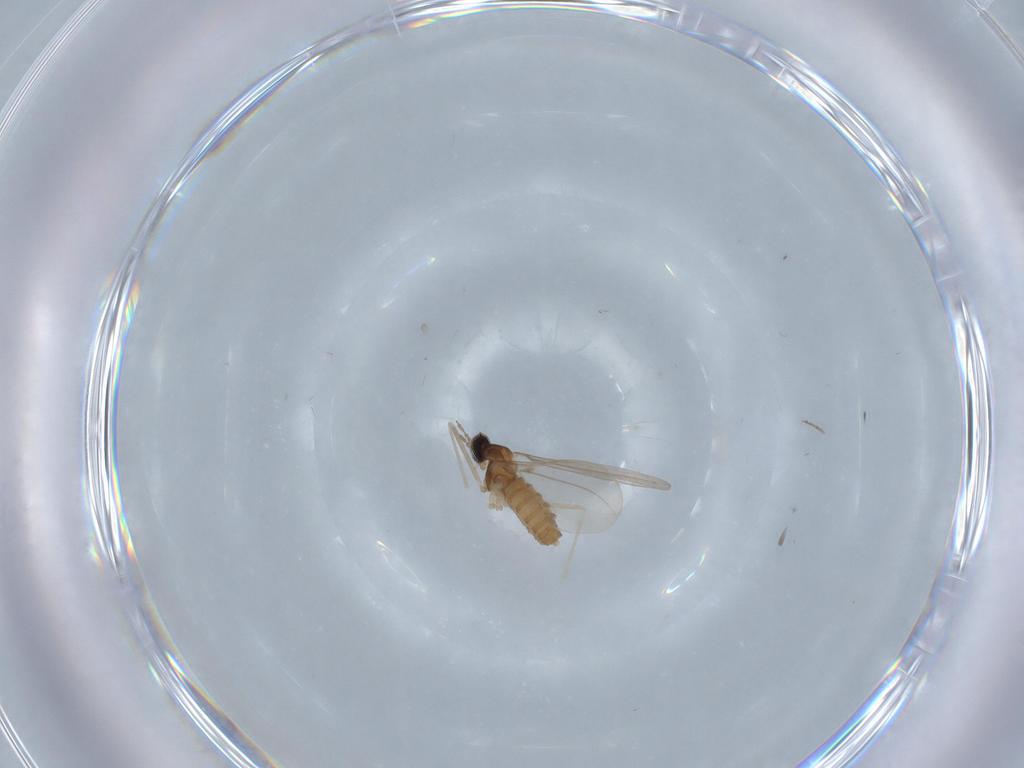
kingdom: Animalia
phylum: Arthropoda
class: Insecta
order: Diptera
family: Cecidomyiidae
